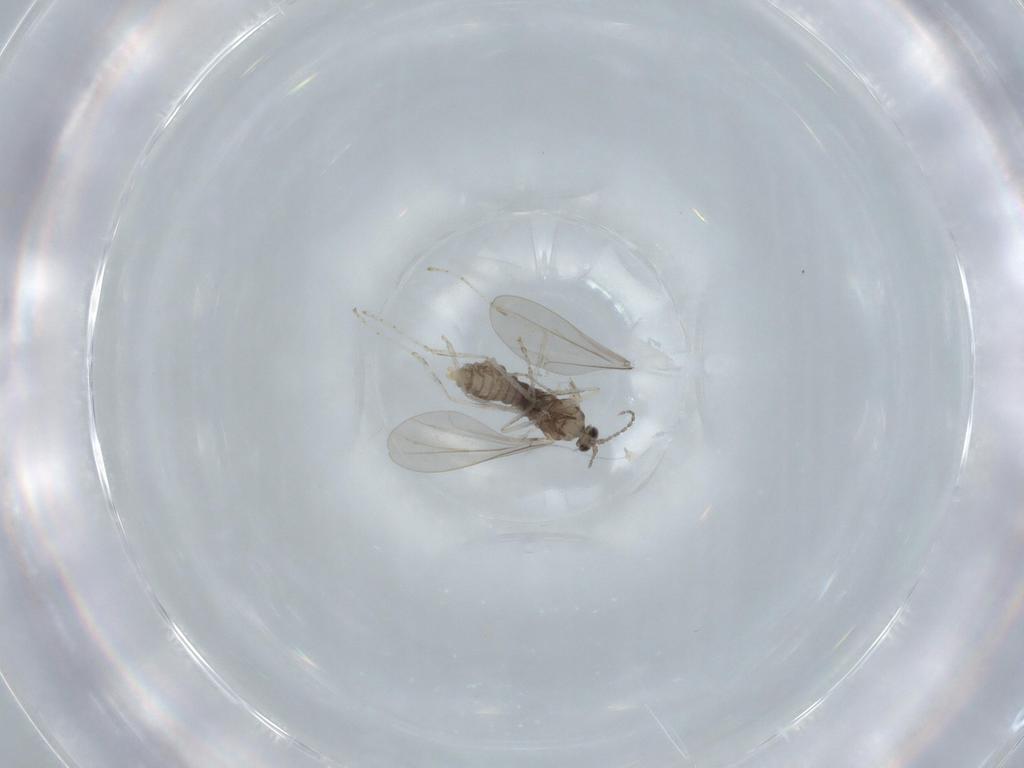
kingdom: Animalia
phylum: Arthropoda
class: Insecta
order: Diptera
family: Cecidomyiidae
